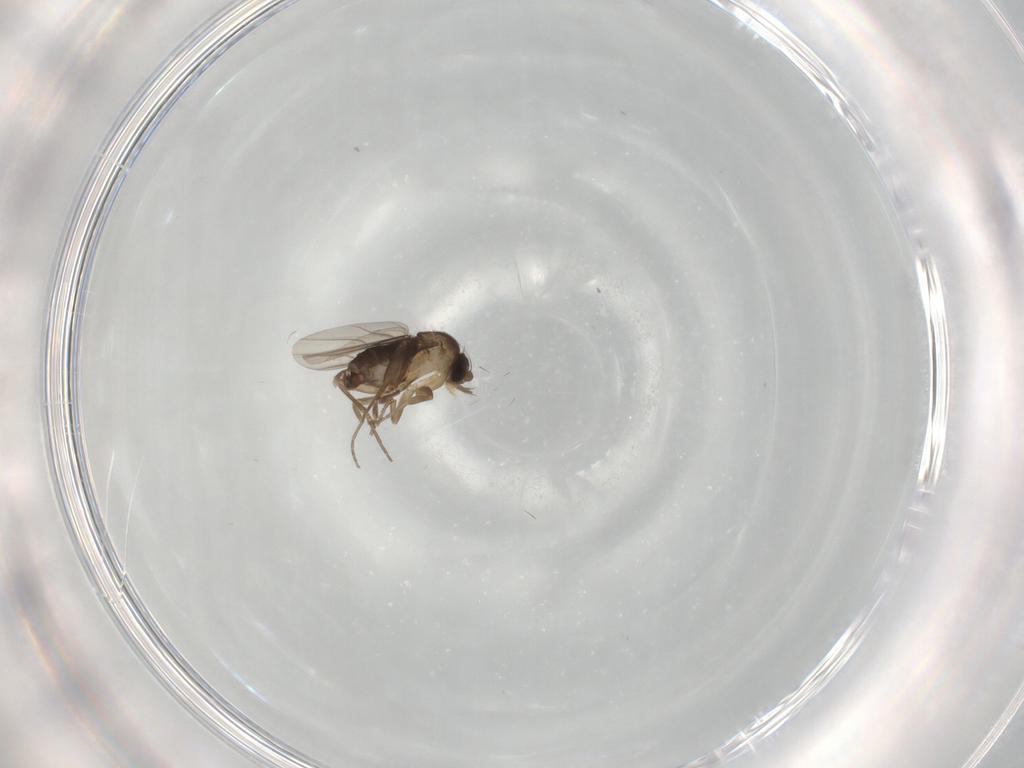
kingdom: Animalia
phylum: Arthropoda
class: Insecta
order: Diptera
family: Phoridae
